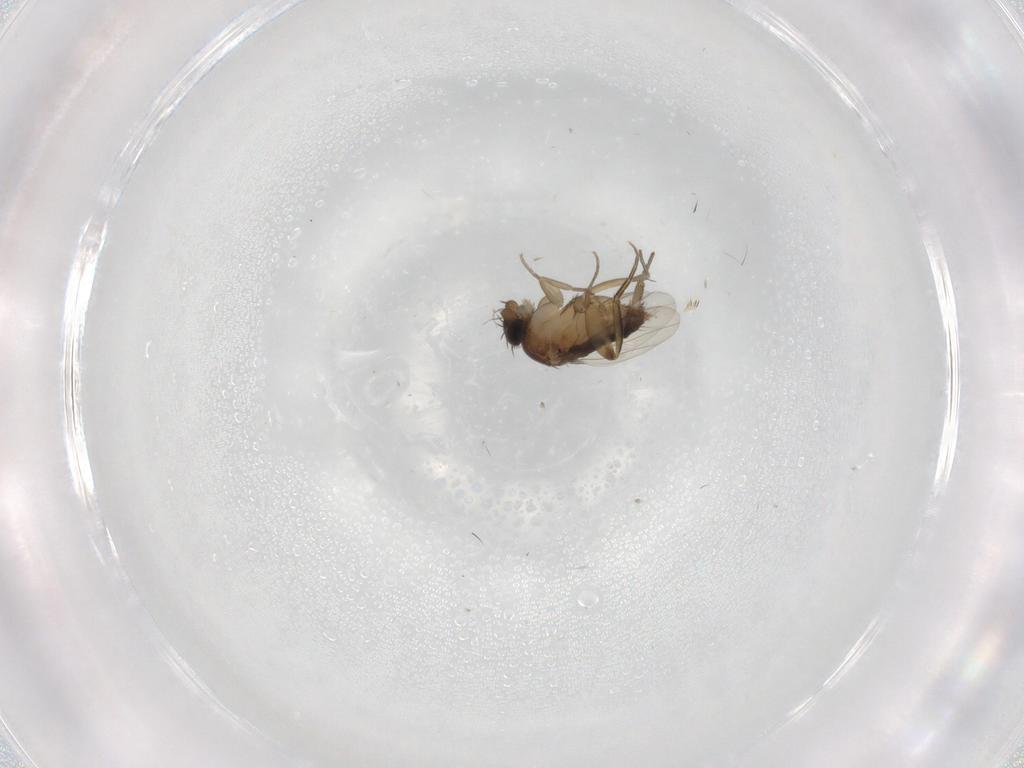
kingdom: Animalia
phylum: Arthropoda
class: Insecta
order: Diptera
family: Phoridae
